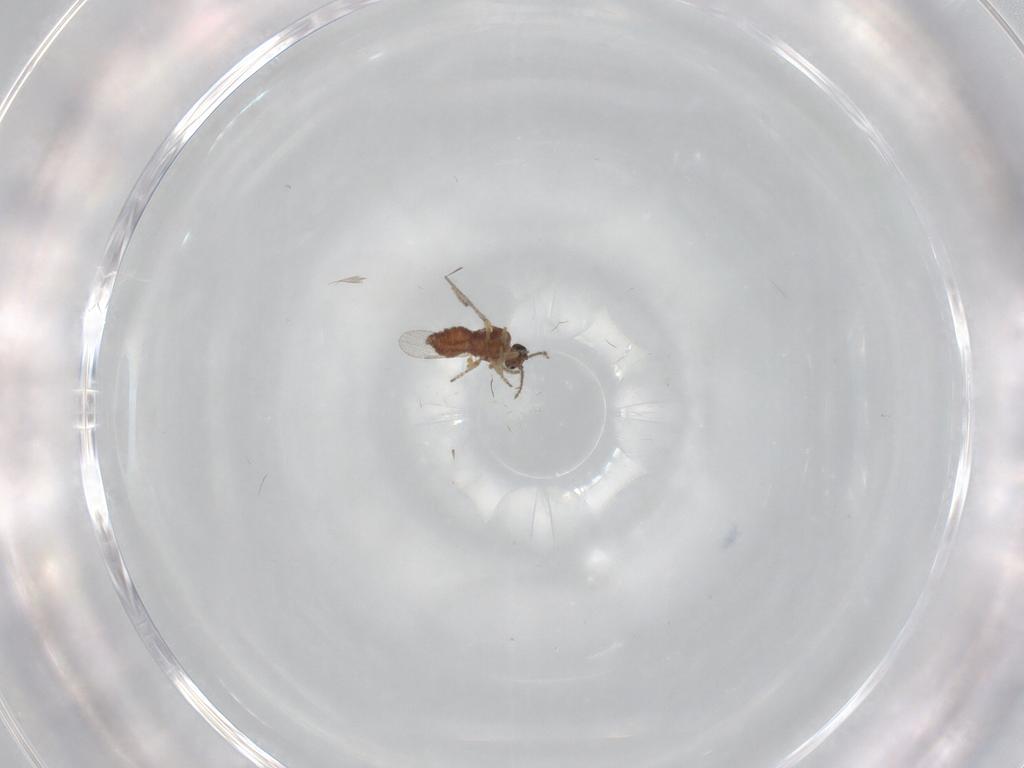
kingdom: Animalia
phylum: Arthropoda
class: Insecta
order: Diptera
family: Ceratopogonidae
